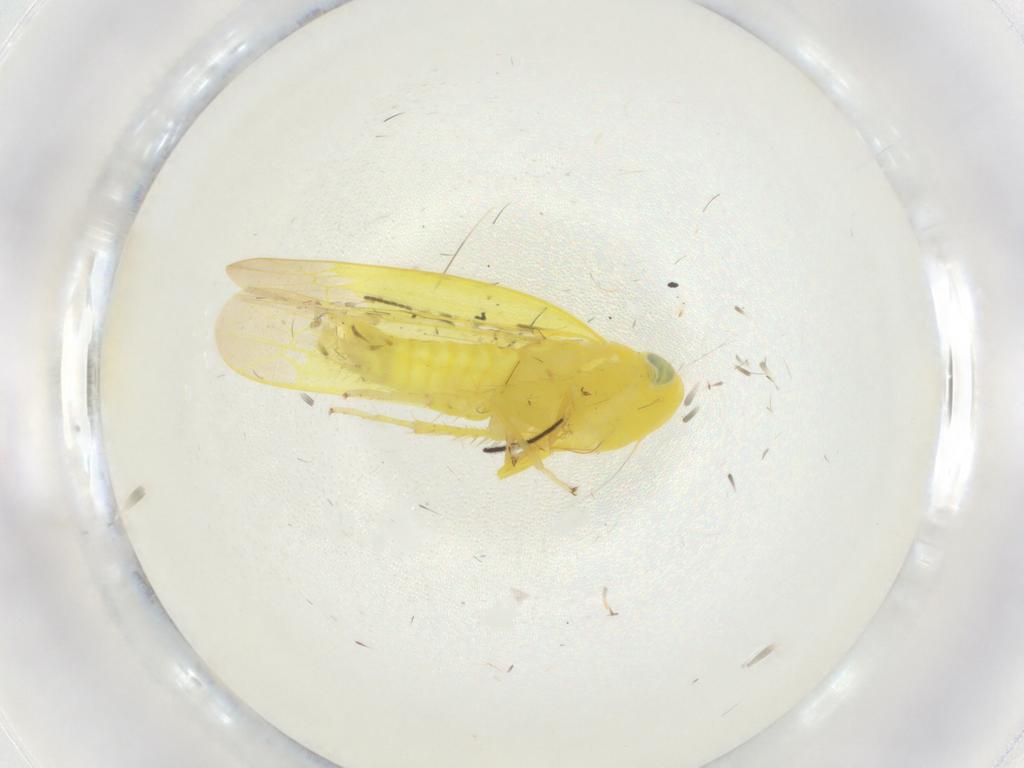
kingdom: Animalia
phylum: Arthropoda
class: Insecta
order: Hemiptera
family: Cicadellidae
